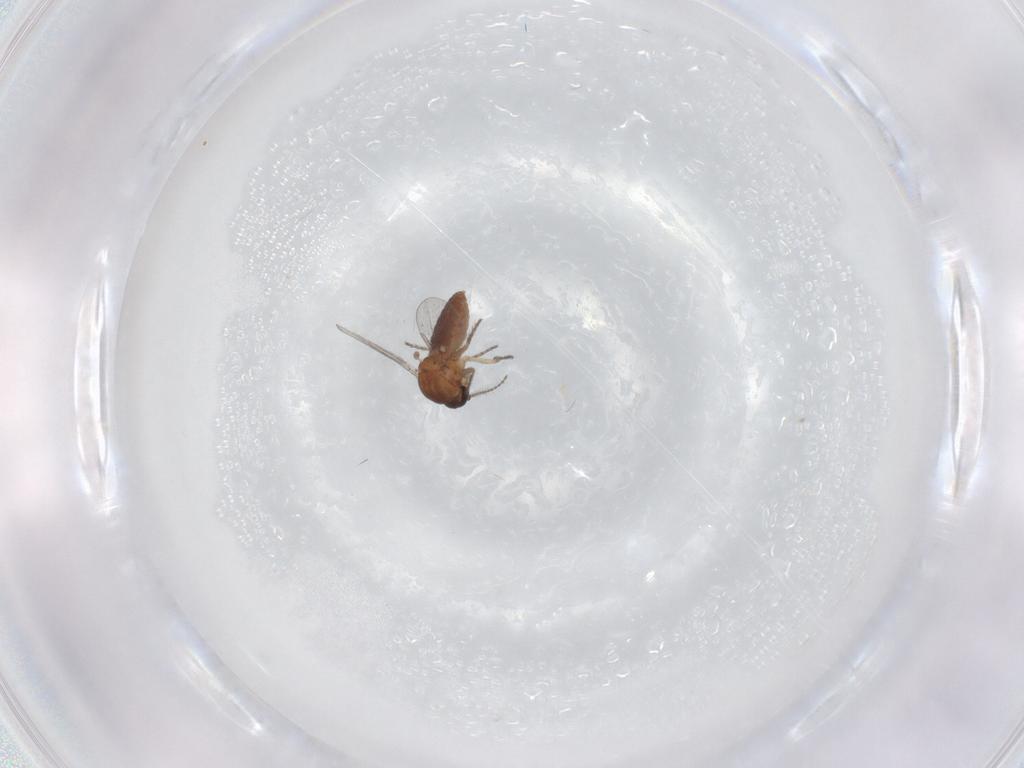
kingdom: Animalia
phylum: Arthropoda
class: Insecta
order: Diptera
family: Ceratopogonidae
